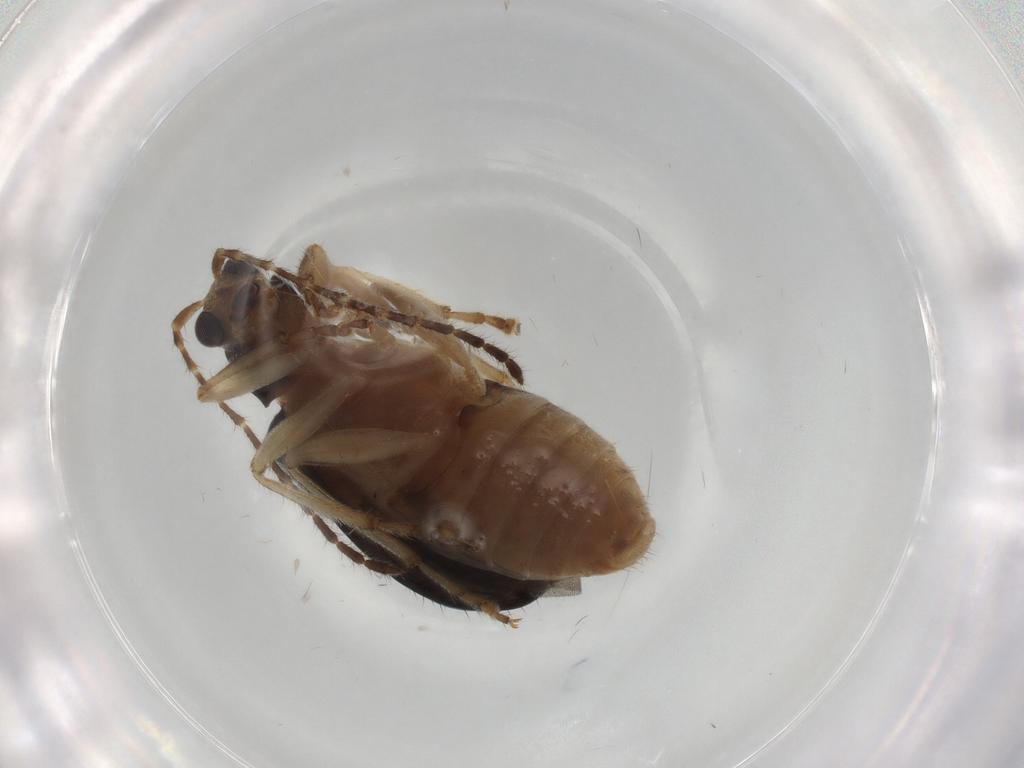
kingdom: Animalia
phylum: Arthropoda
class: Insecta
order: Coleoptera
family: Chrysomelidae
